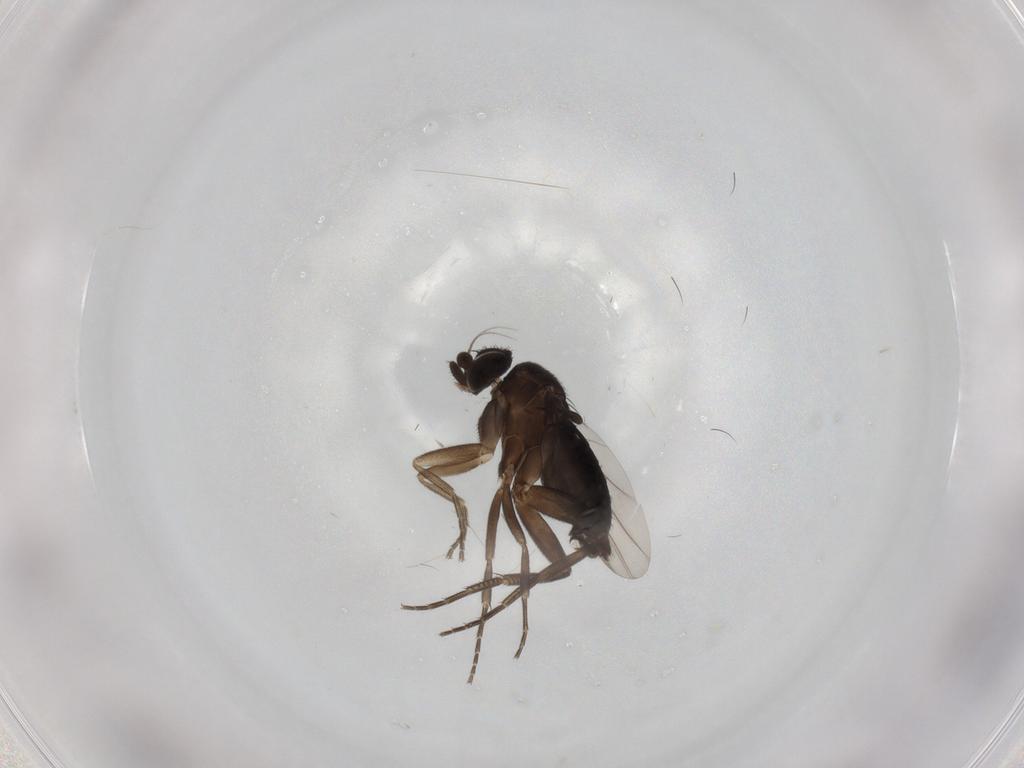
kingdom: Animalia
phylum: Arthropoda
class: Insecta
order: Diptera
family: Phoridae
